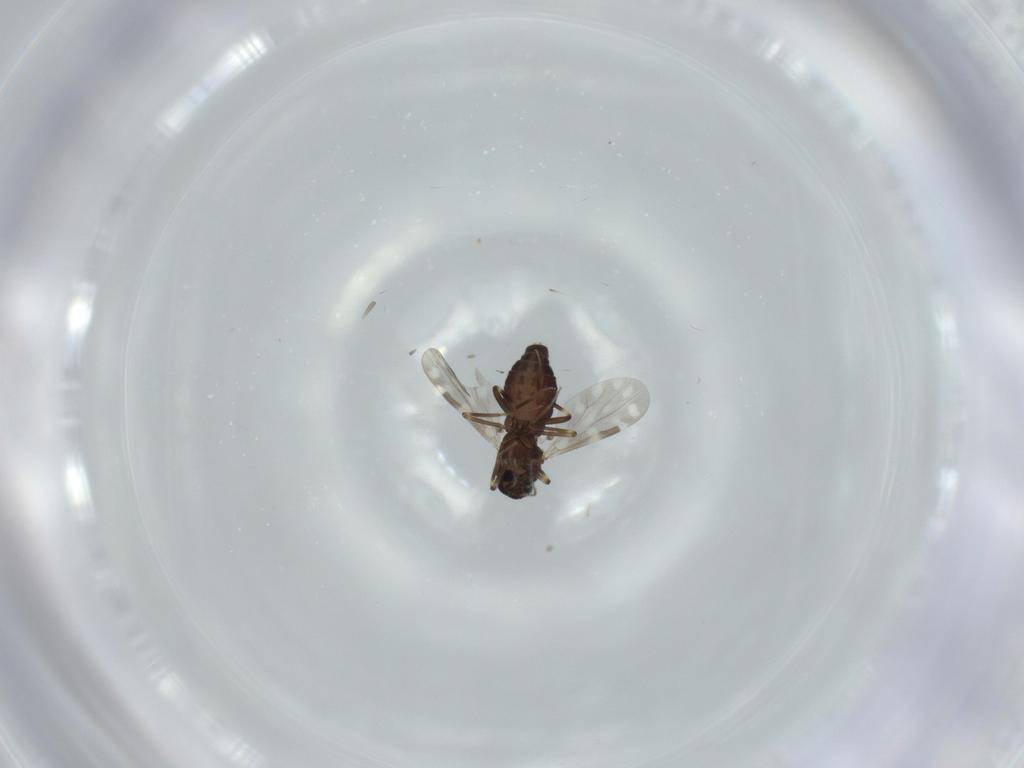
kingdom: Animalia
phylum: Arthropoda
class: Insecta
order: Diptera
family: Ceratopogonidae
